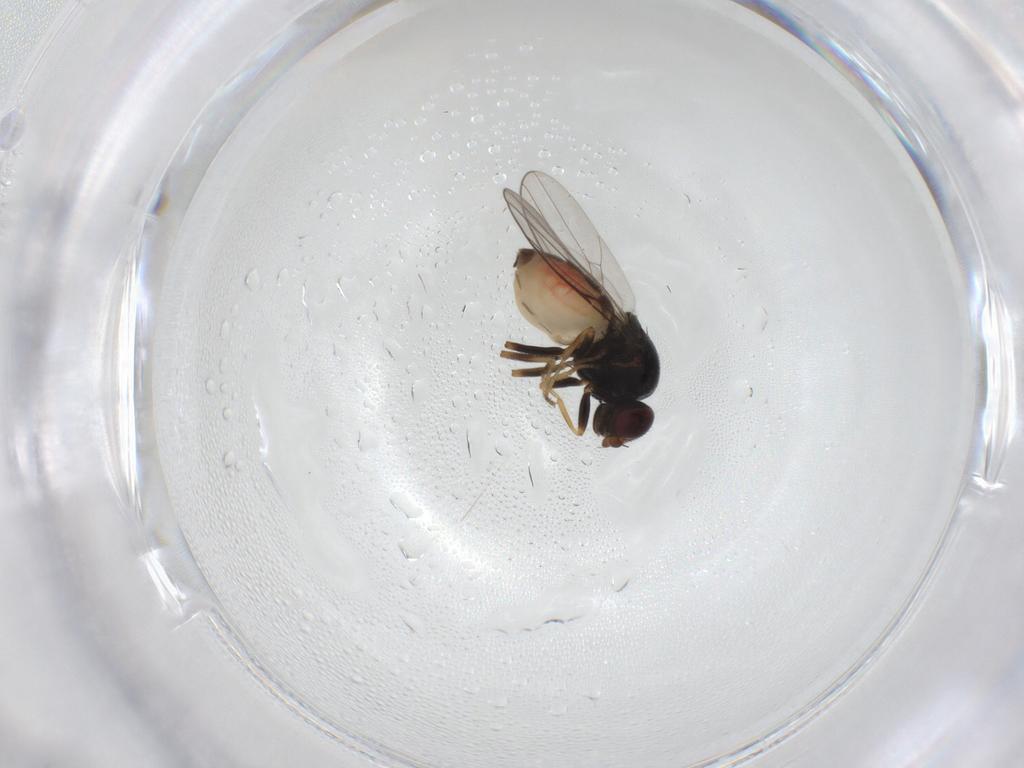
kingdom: Animalia
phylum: Arthropoda
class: Insecta
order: Diptera
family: Chloropidae
